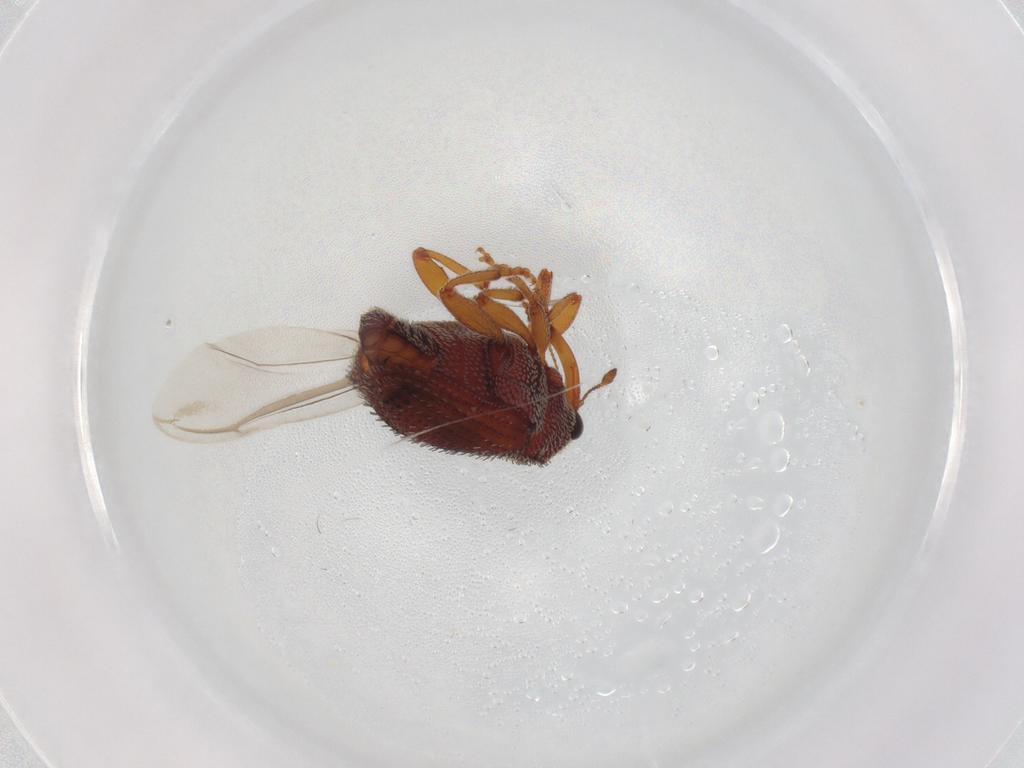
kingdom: Animalia
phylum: Arthropoda
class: Insecta
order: Coleoptera
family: Curculionidae
